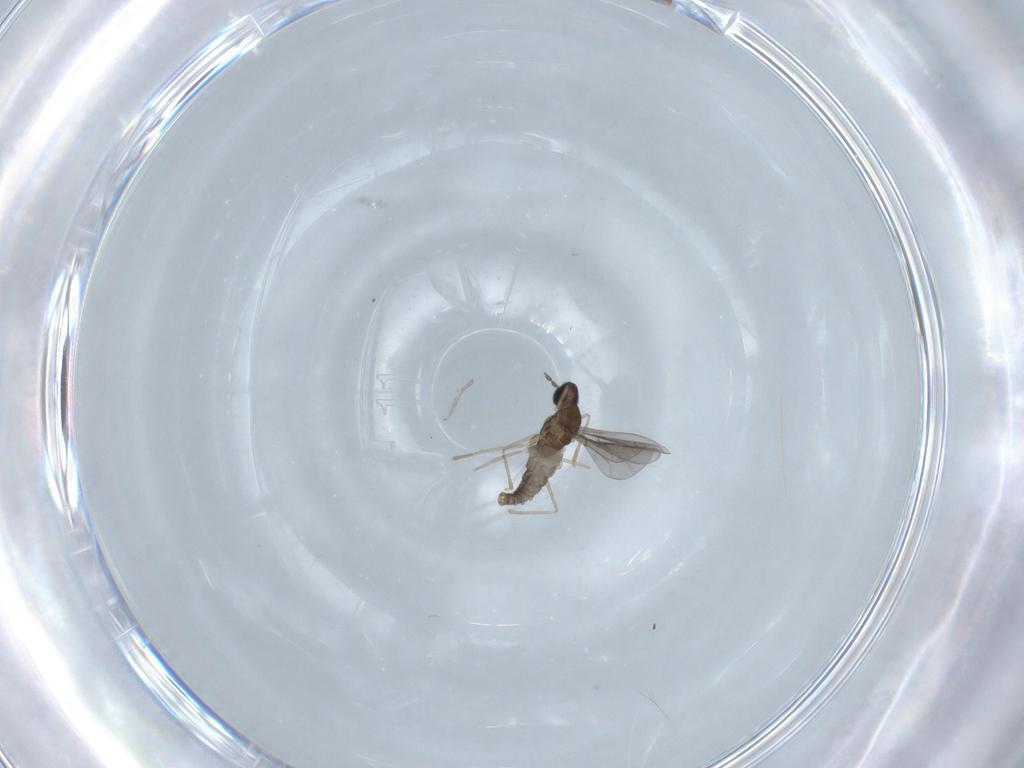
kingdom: Animalia
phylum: Arthropoda
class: Insecta
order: Diptera
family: Cecidomyiidae
